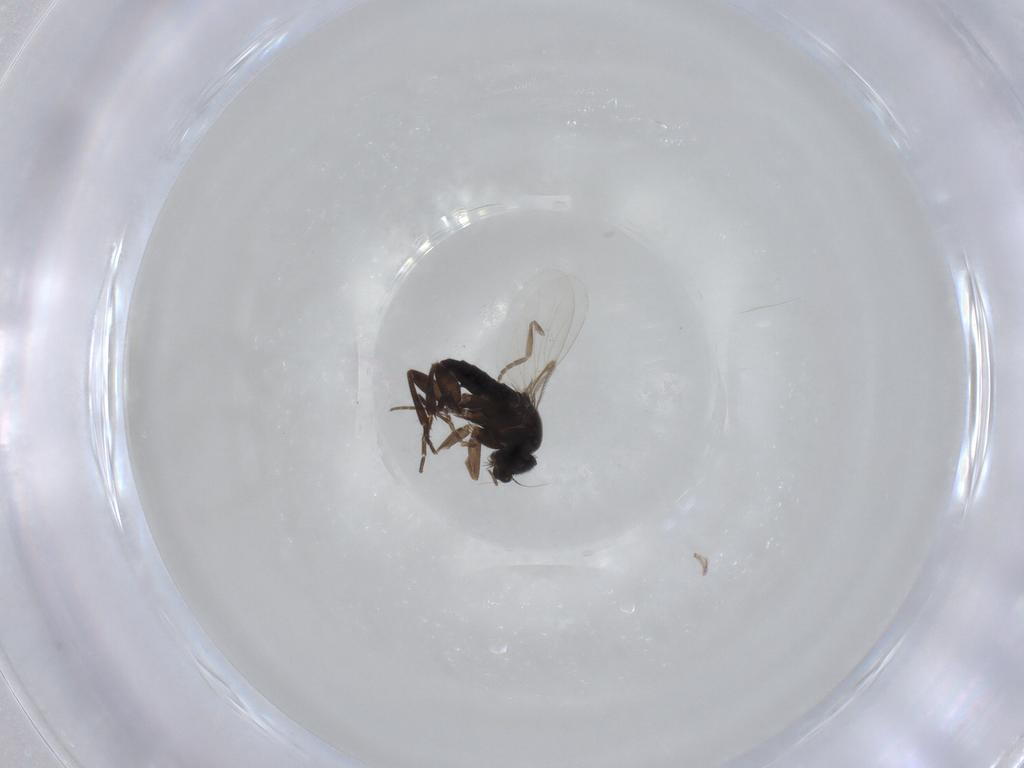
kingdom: Animalia
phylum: Arthropoda
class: Insecta
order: Diptera
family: Phoridae
